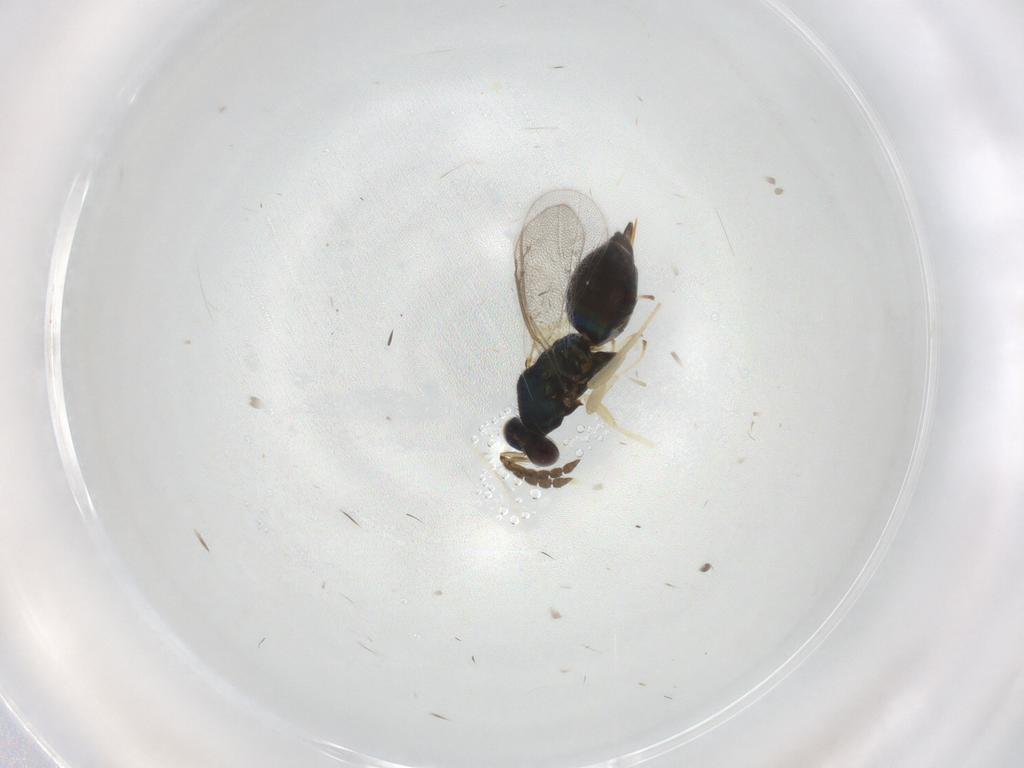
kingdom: Animalia
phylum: Arthropoda
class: Insecta
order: Hymenoptera
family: Eulophidae
